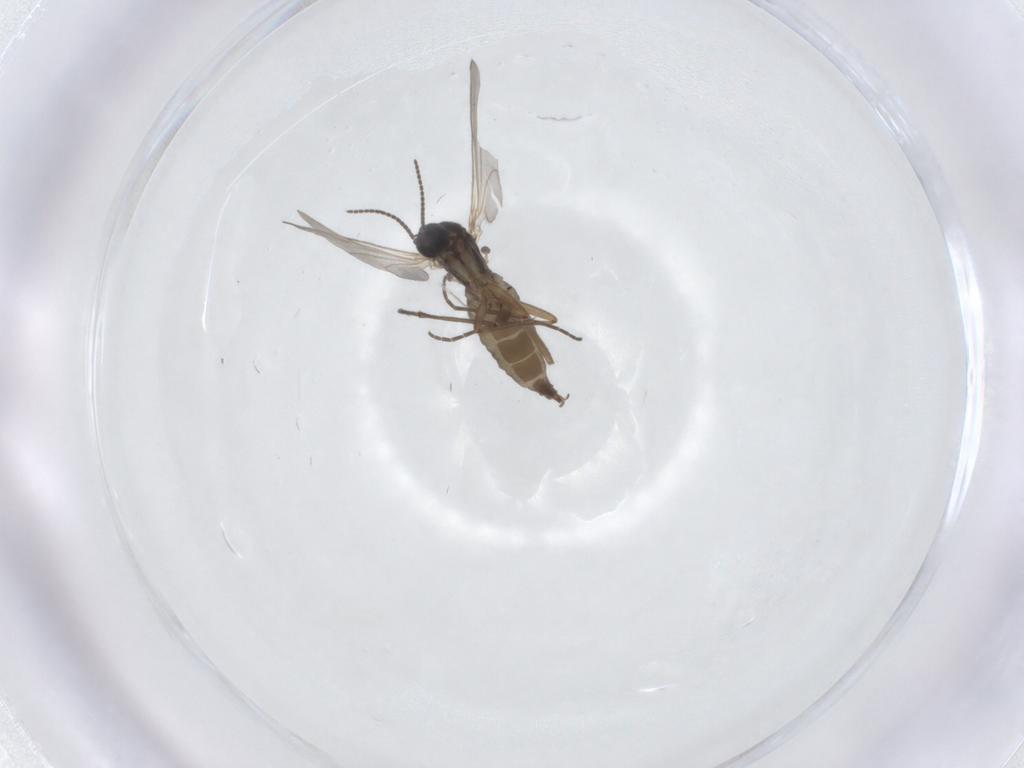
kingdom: Animalia
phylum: Arthropoda
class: Insecta
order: Diptera
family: Sciaridae
